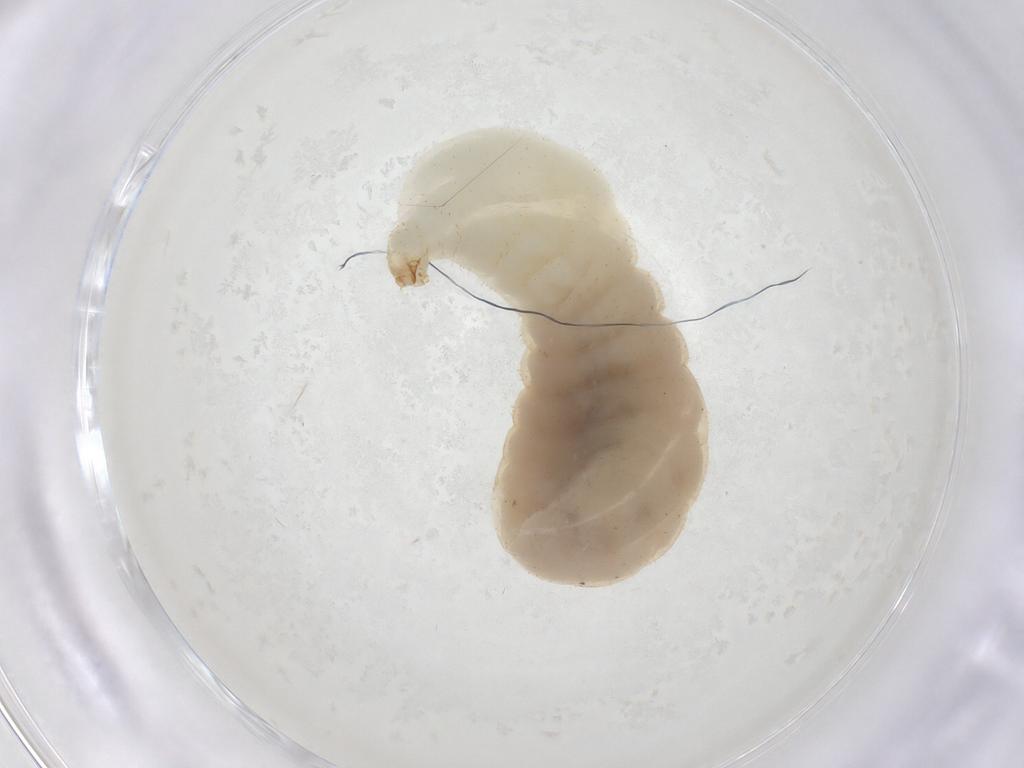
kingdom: Animalia
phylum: Arthropoda
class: Insecta
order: Hymenoptera
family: Formicidae
